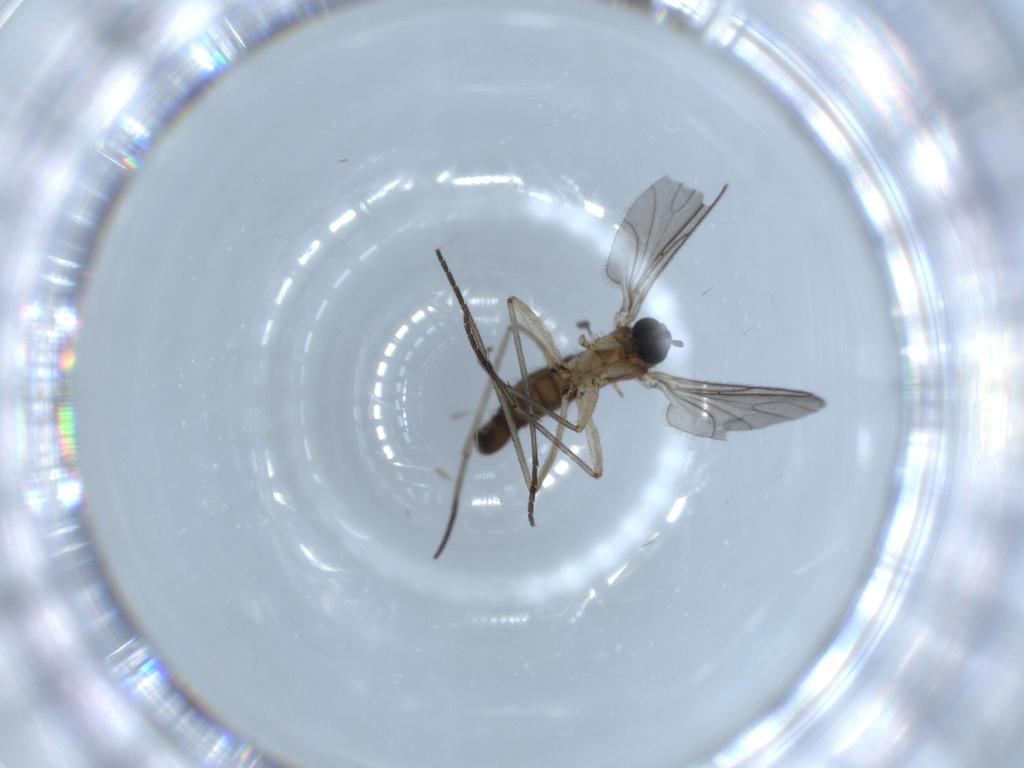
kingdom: Animalia
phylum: Arthropoda
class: Insecta
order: Diptera
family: Sciaridae
